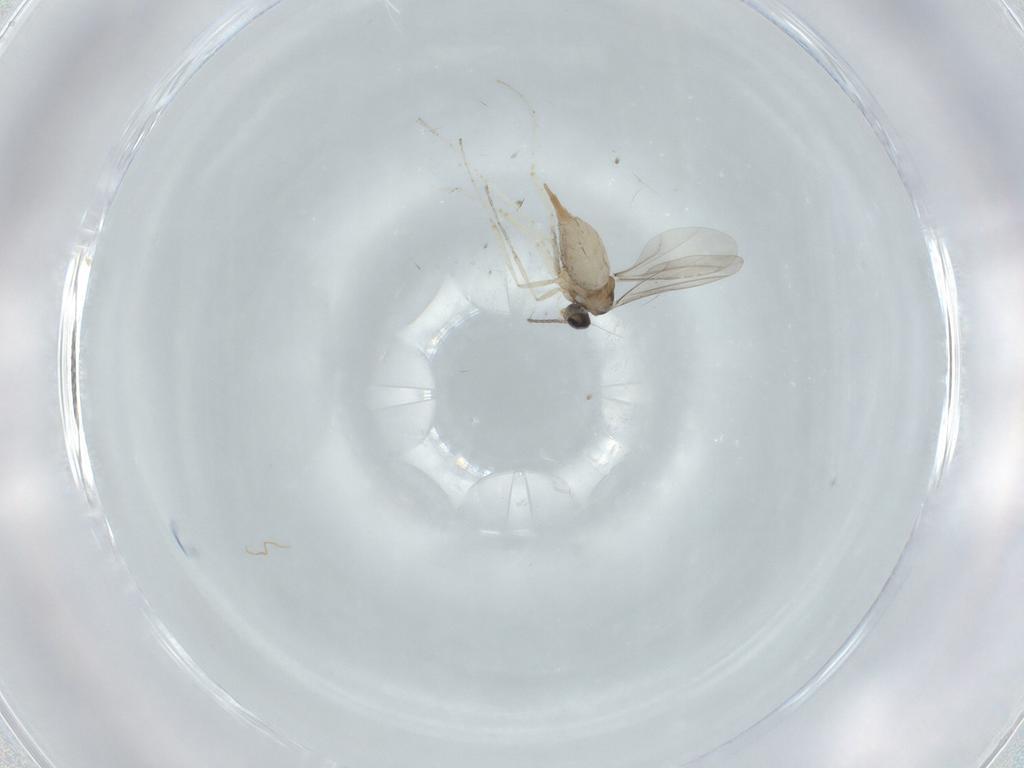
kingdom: Animalia
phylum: Arthropoda
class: Insecta
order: Diptera
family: Cecidomyiidae
